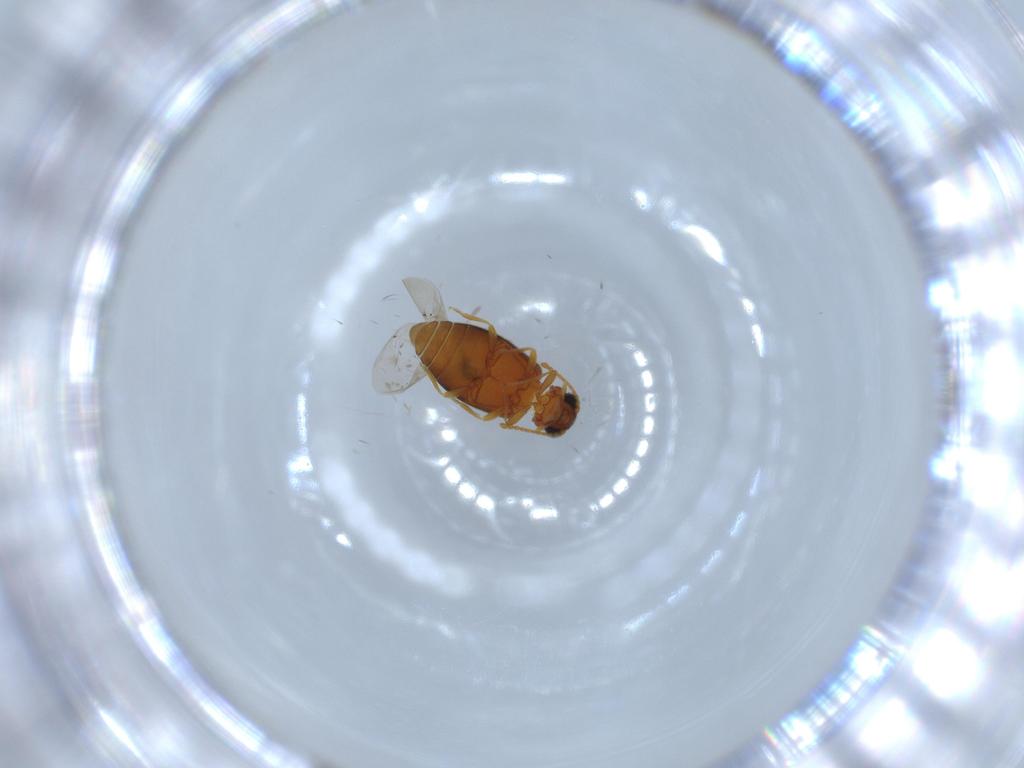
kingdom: Animalia
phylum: Arthropoda
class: Insecta
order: Coleoptera
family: Aderidae
